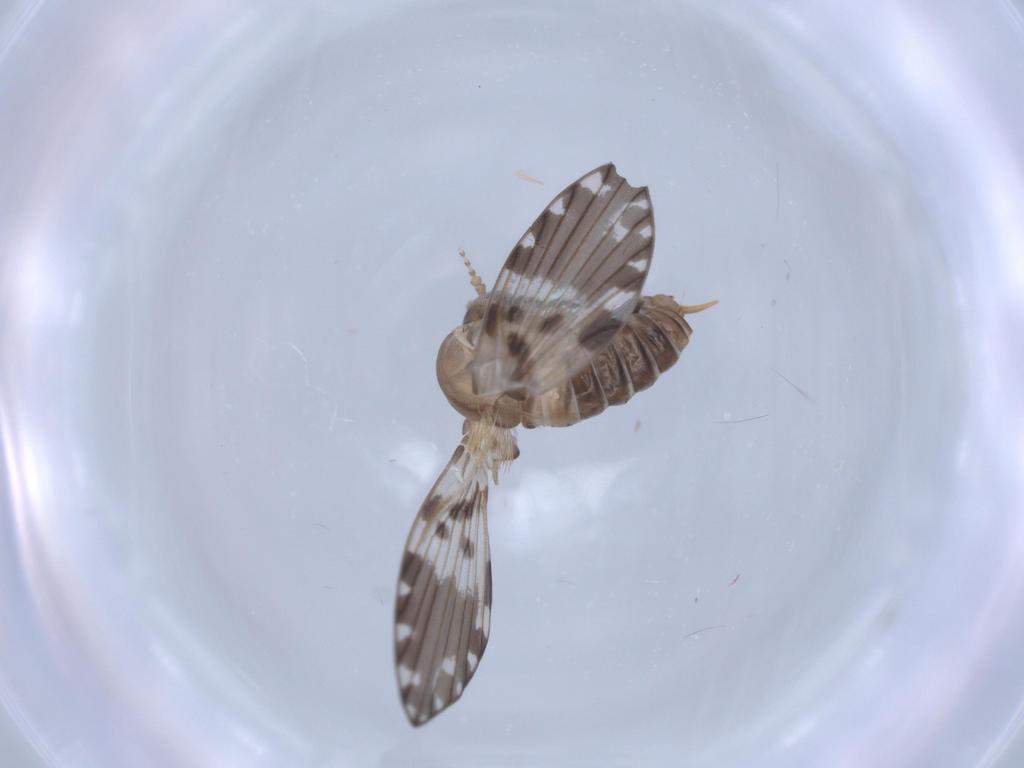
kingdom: Animalia
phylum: Arthropoda
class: Insecta
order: Diptera
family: Psychodidae
